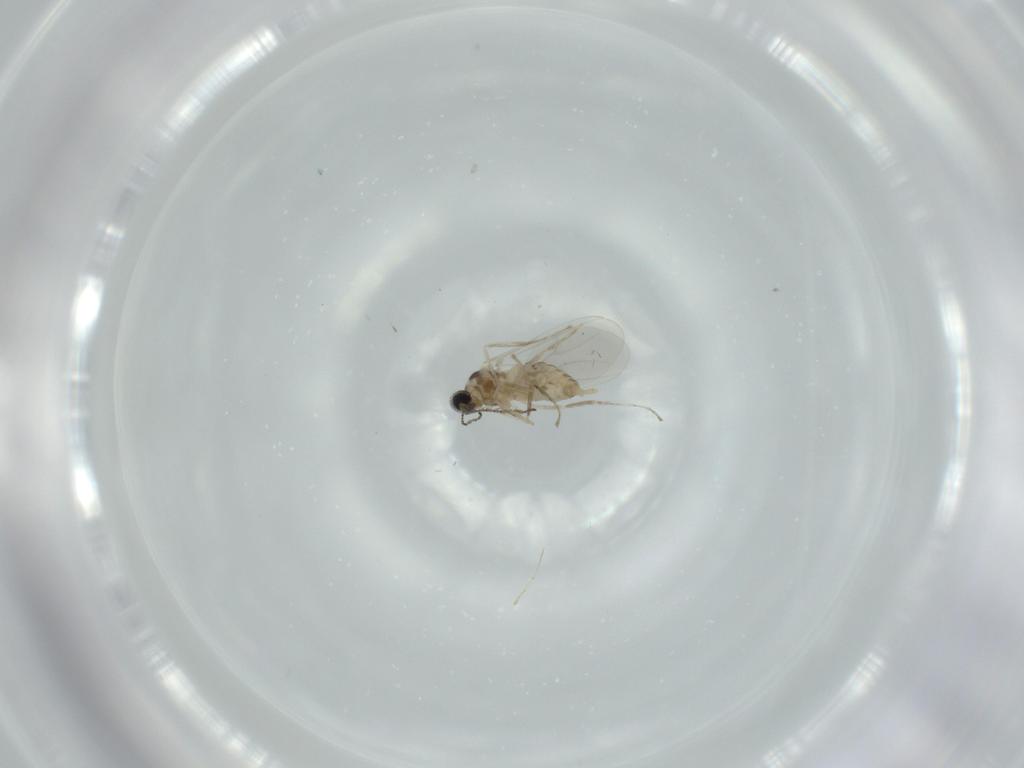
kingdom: Animalia
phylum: Arthropoda
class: Insecta
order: Diptera
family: Cecidomyiidae
